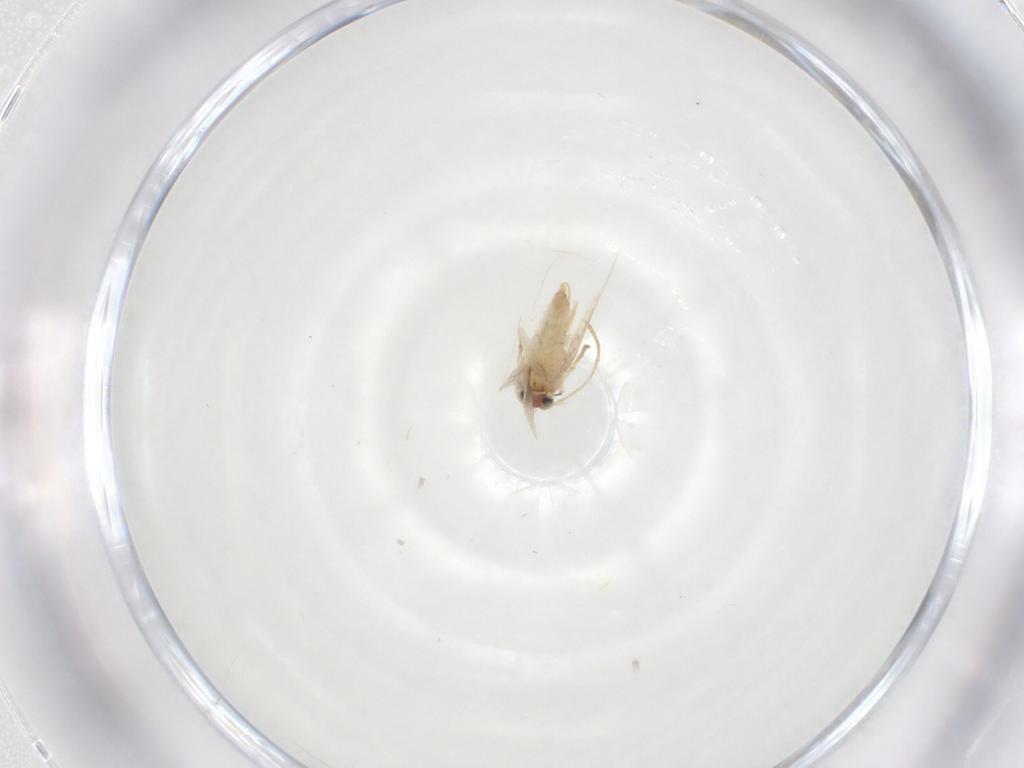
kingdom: Animalia
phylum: Arthropoda
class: Insecta
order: Lepidoptera
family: Nepticulidae
